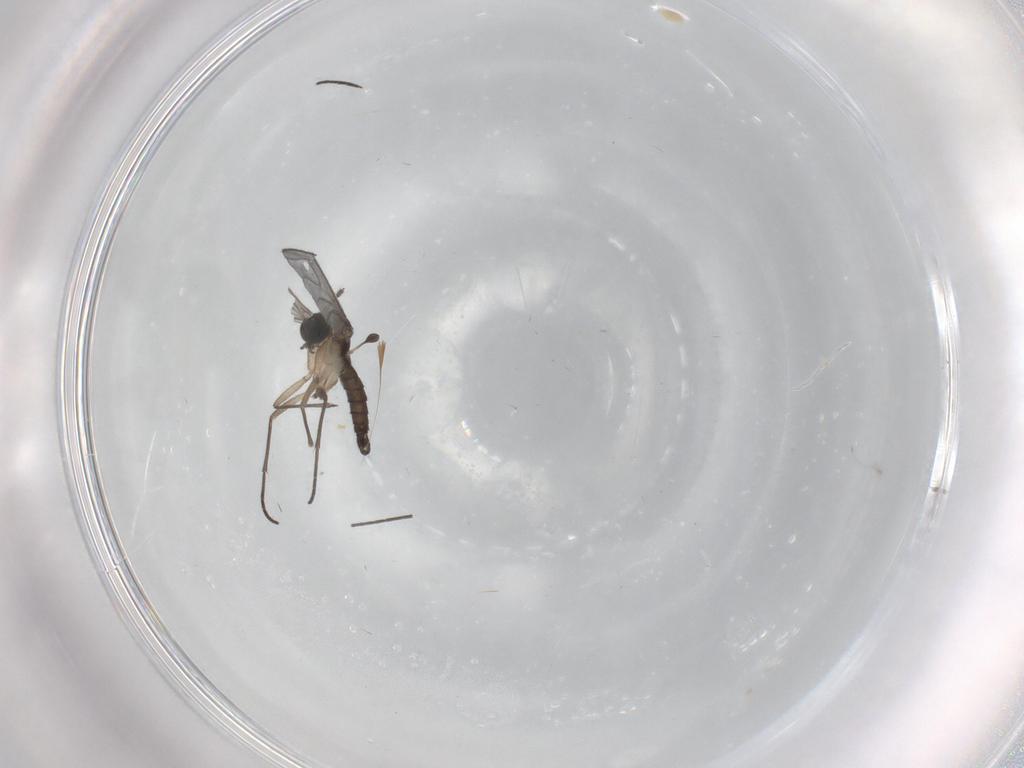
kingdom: Animalia
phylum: Arthropoda
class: Insecta
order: Diptera
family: Sciaridae
